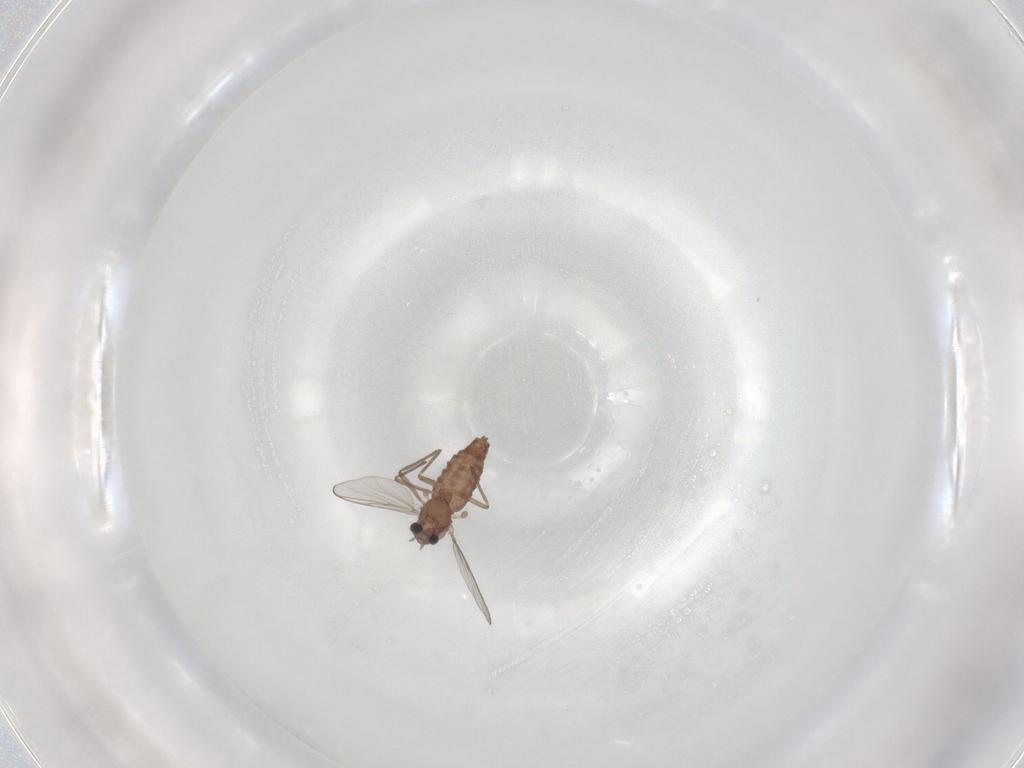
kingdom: Animalia
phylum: Arthropoda
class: Insecta
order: Diptera
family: Chironomidae
